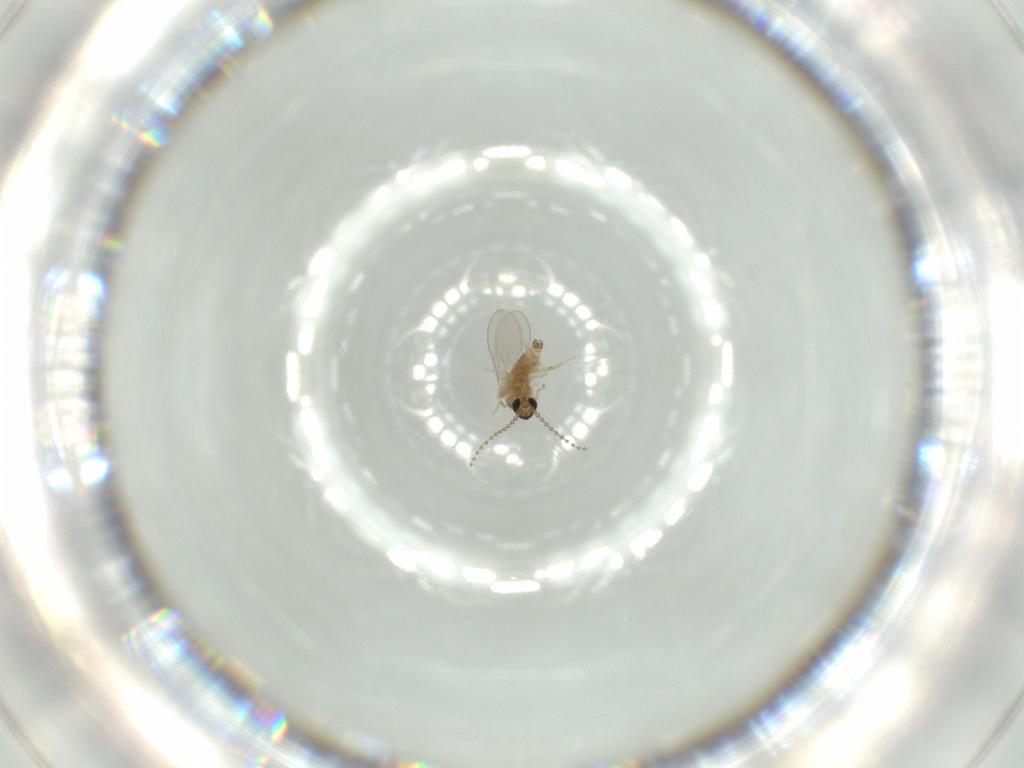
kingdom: Animalia
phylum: Arthropoda
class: Insecta
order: Diptera
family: Cecidomyiidae
